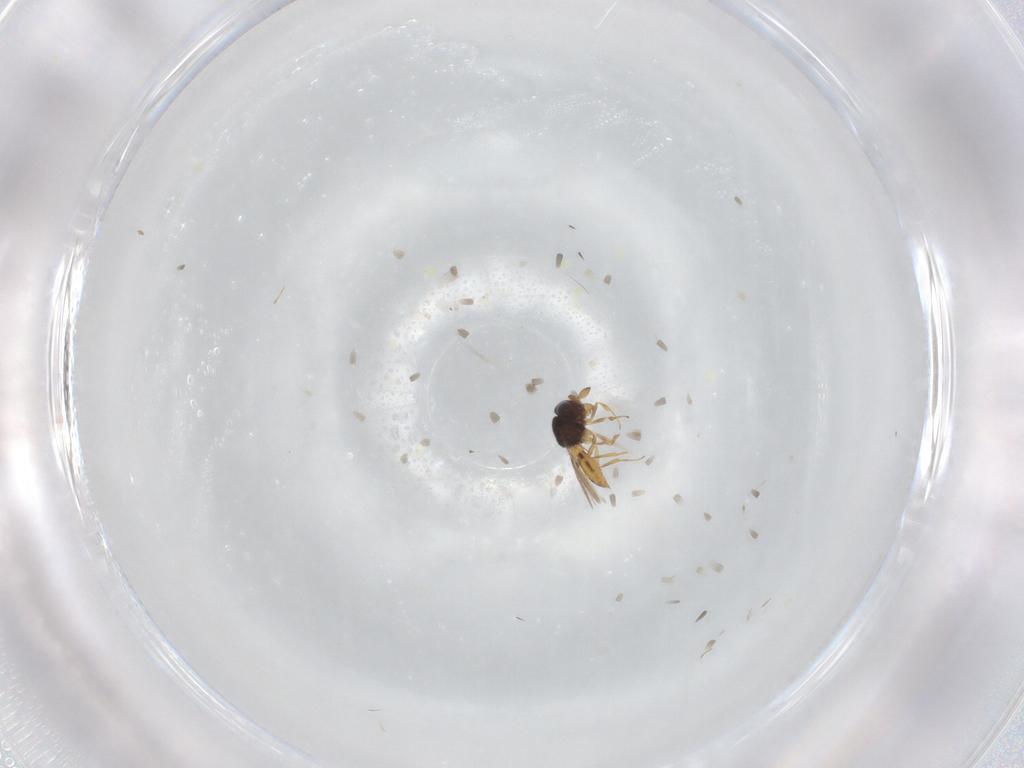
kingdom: Animalia
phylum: Arthropoda
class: Insecta
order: Hymenoptera
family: Scelionidae
